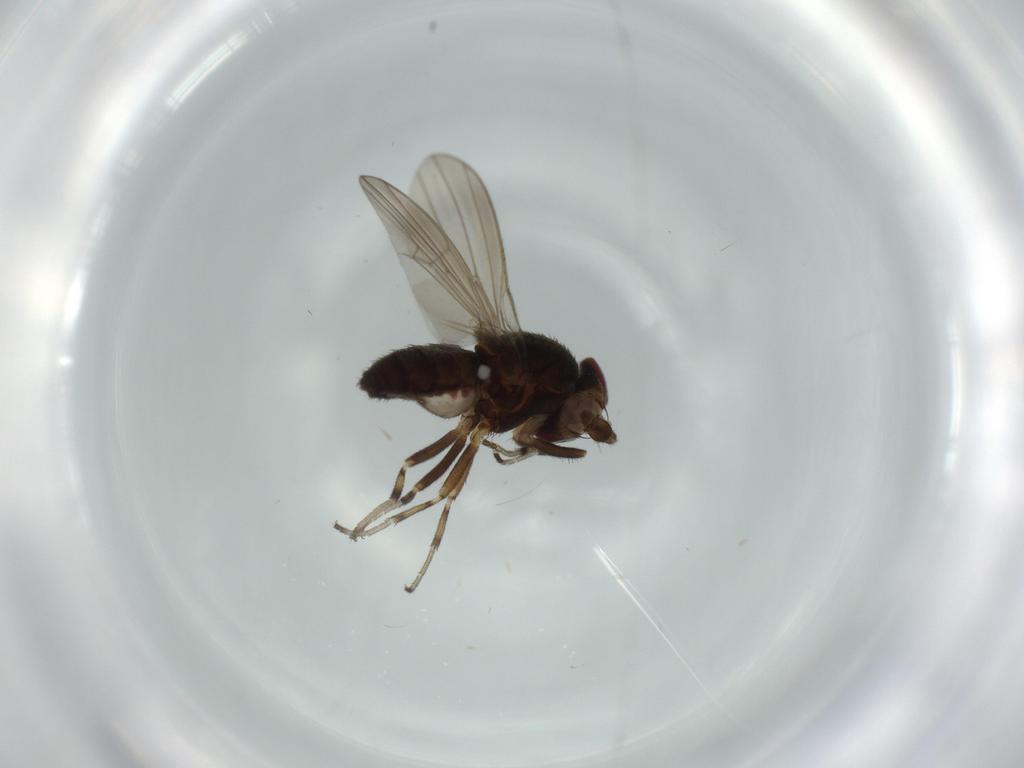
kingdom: Animalia
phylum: Arthropoda
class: Insecta
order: Diptera
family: Heleomyzidae
